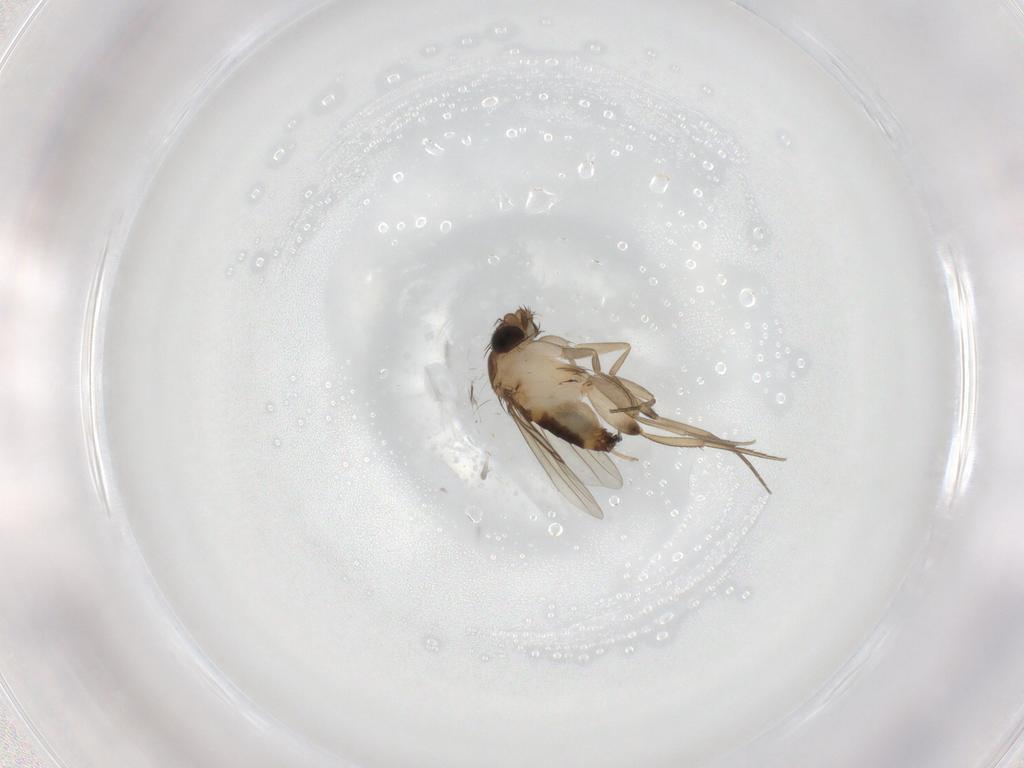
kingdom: Animalia
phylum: Arthropoda
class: Insecta
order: Diptera
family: Phoridae
